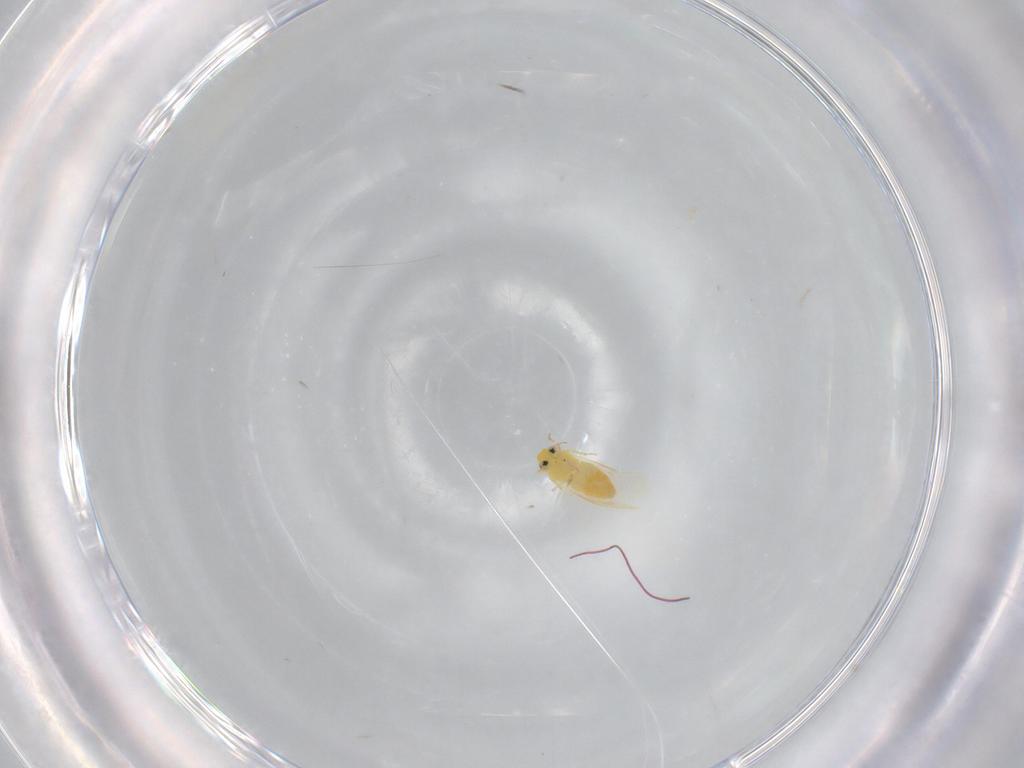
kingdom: Animalia
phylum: Arthropoda
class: Insecta
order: Hemiptera
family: Aleyrodidae
